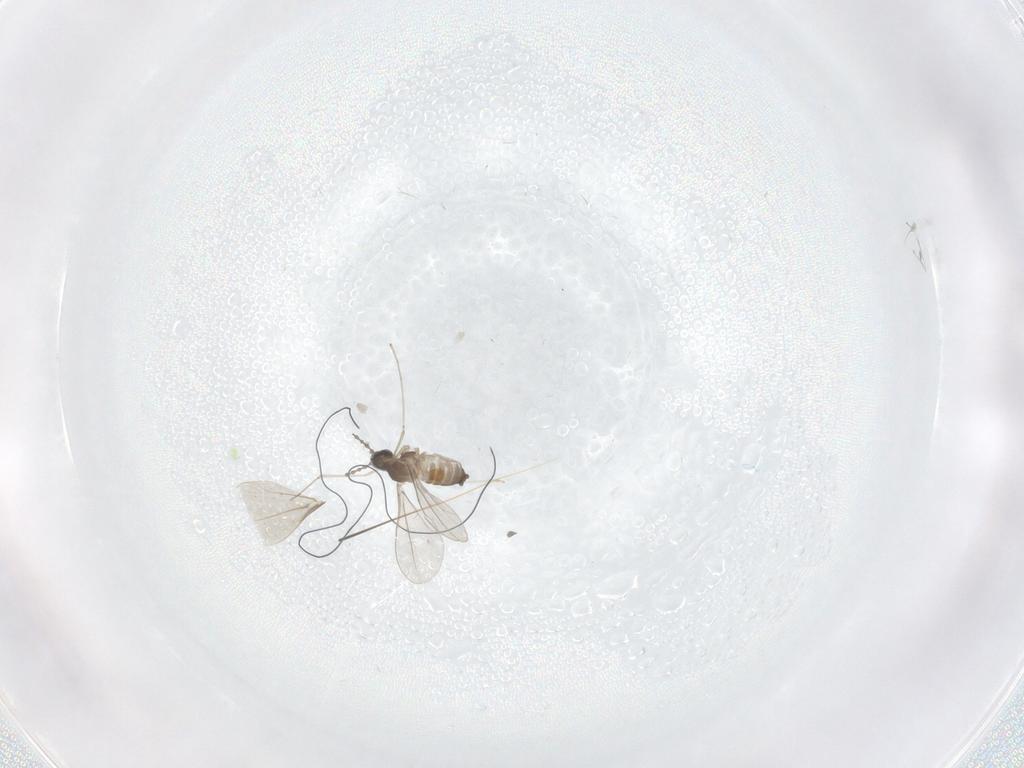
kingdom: Animalia
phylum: Arthropoda
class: Insecta
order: Diptera
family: Cecidomyiidae
